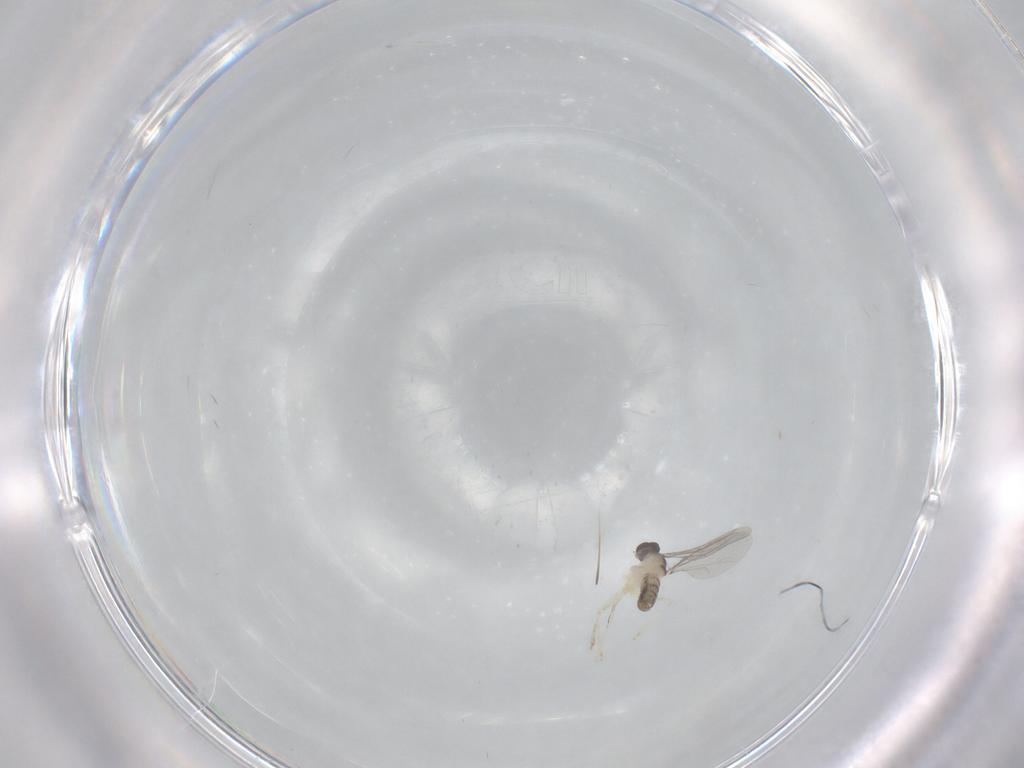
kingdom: Animalia
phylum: Arthropoda
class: Insecta
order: Diptera
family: Cecidomyiidae
